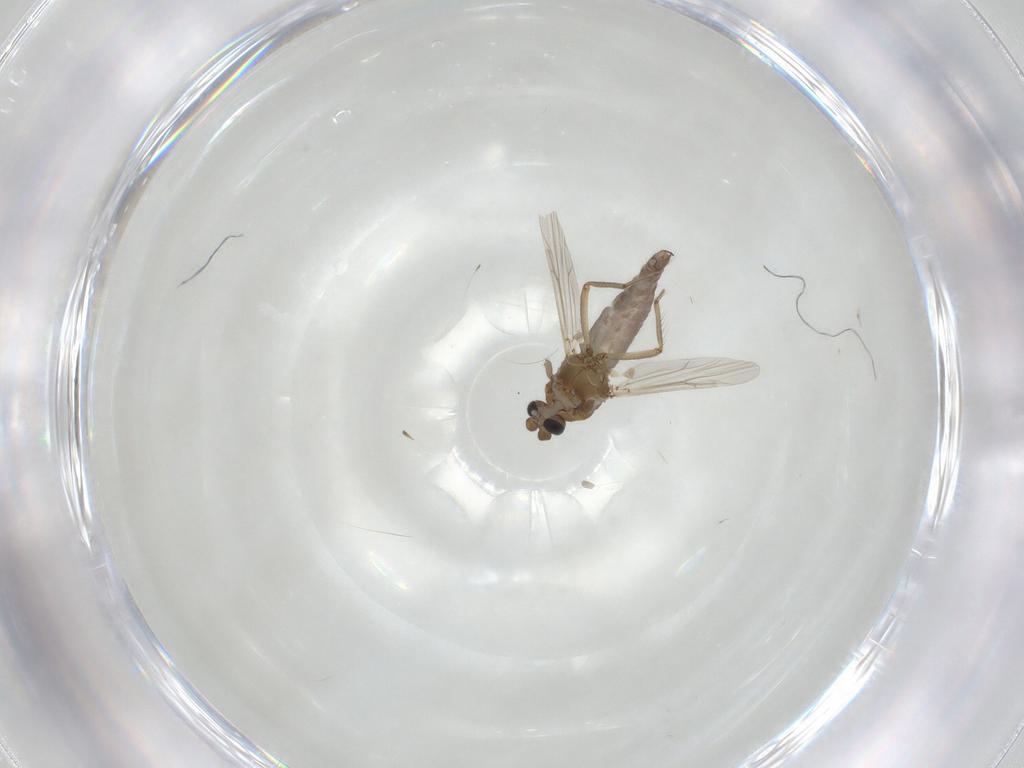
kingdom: Animalia
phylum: Arthropoda
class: Insecta
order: Diptera
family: Ceratopogonidae
